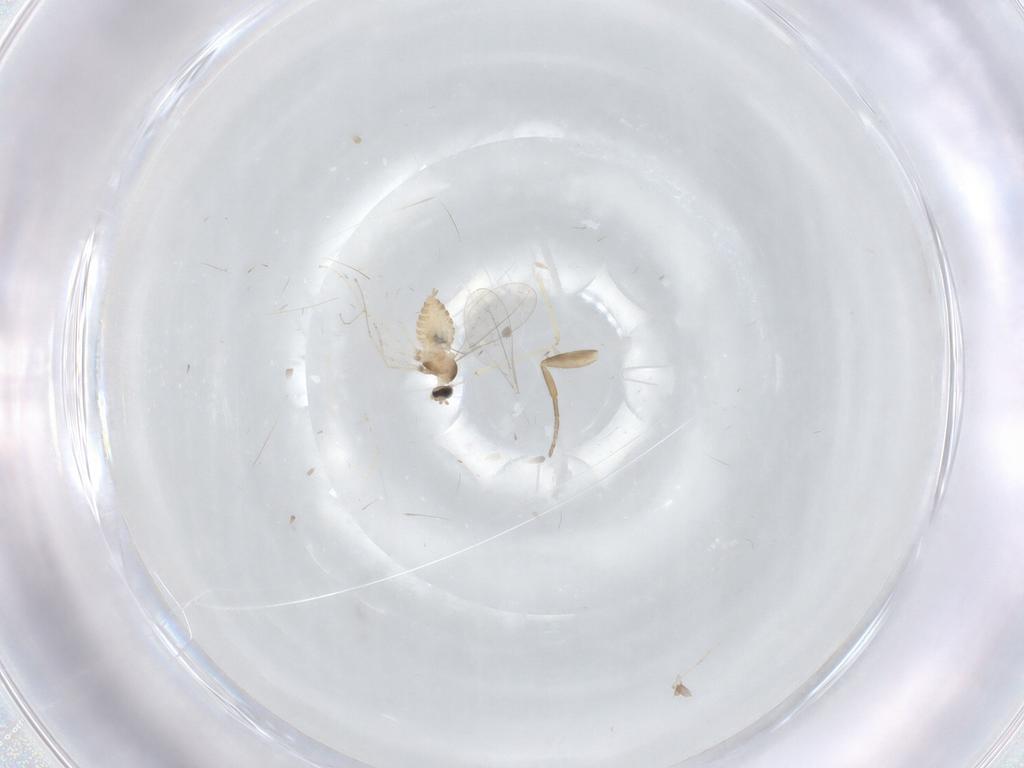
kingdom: Animalia
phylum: Arthropoda
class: Insecta
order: Diptera
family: Cecidomyiidae
